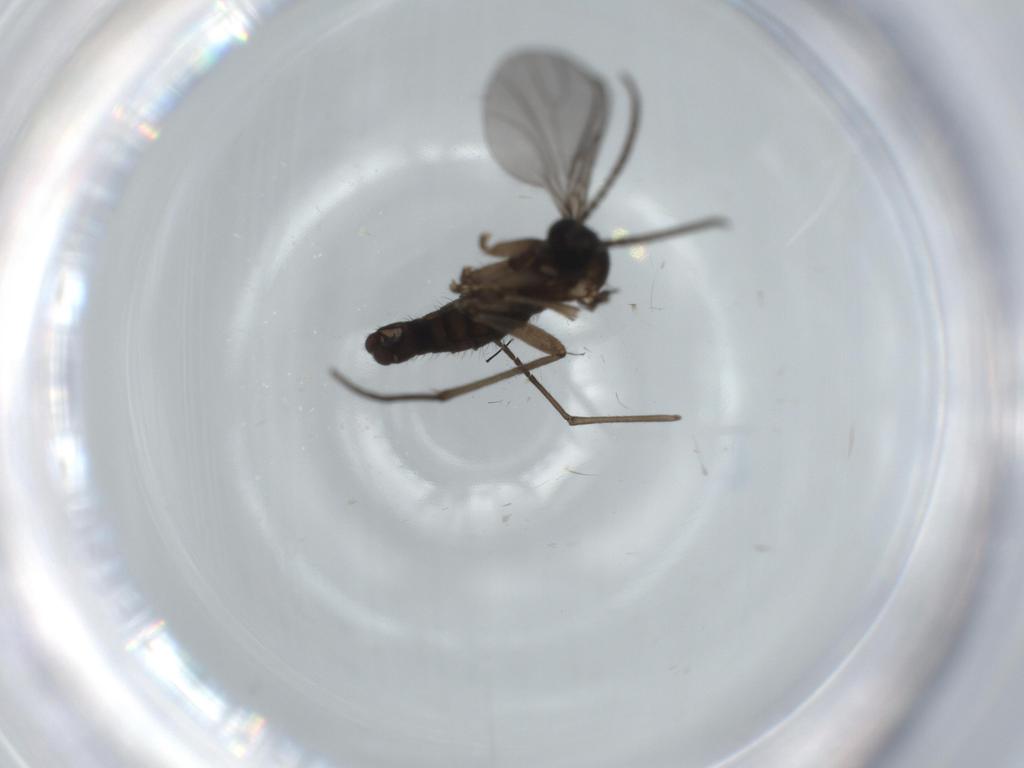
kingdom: Animalia
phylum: Arthropoda
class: Insecta
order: Diptera
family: Sciaridae
